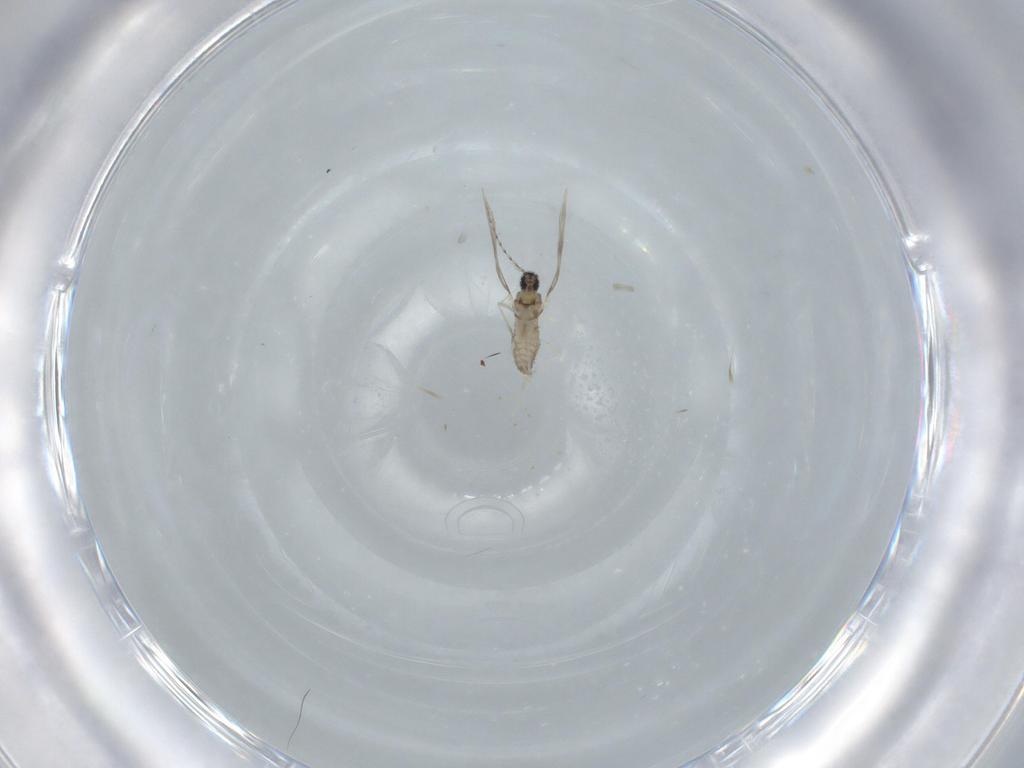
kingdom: Animalia
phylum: Arthropoda
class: Insecta
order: Diptera
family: Cecidomyiidae
